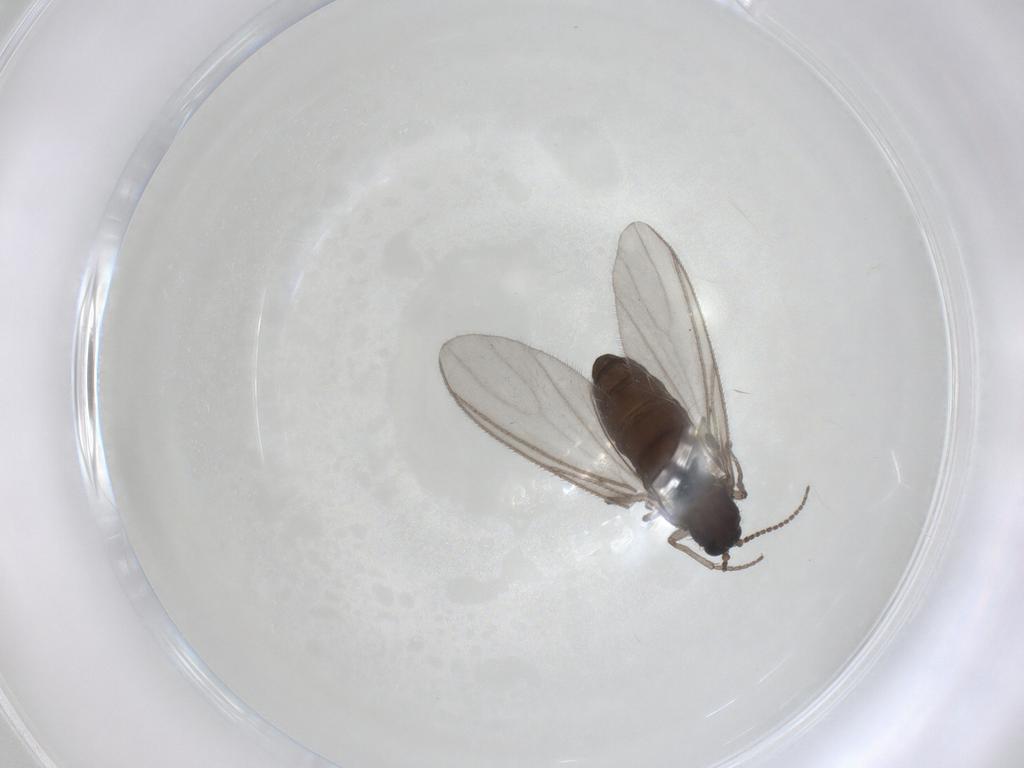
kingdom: Animalia
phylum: Arthropoda
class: Insecta
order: Diptera
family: Sciaridae
